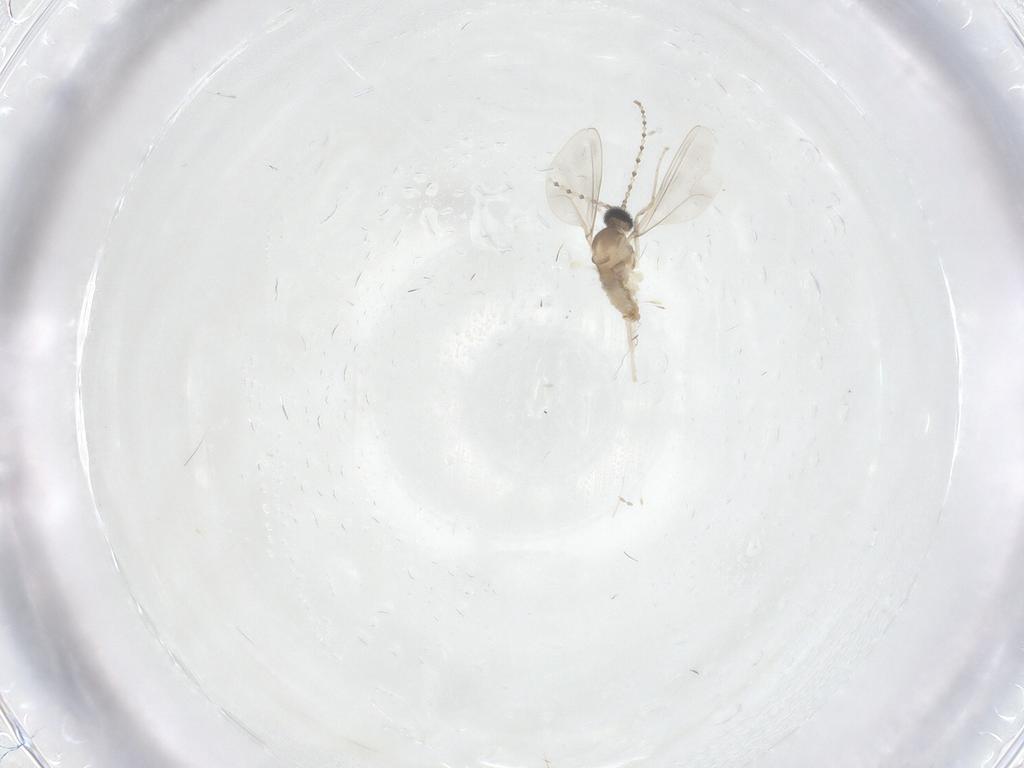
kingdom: Animalia
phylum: Arthropoda
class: Insecta
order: Diptera
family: Cecidomyiidae
